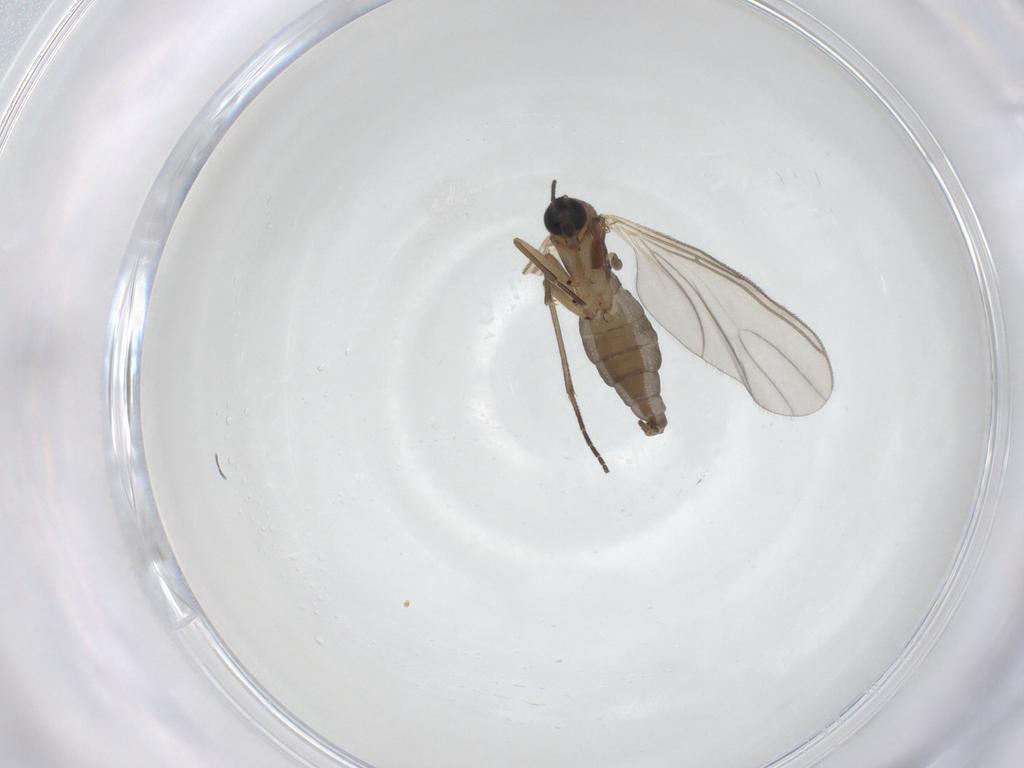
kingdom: Animalia
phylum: Arthropoda
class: Insecta
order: Diptera
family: Sciaridae
